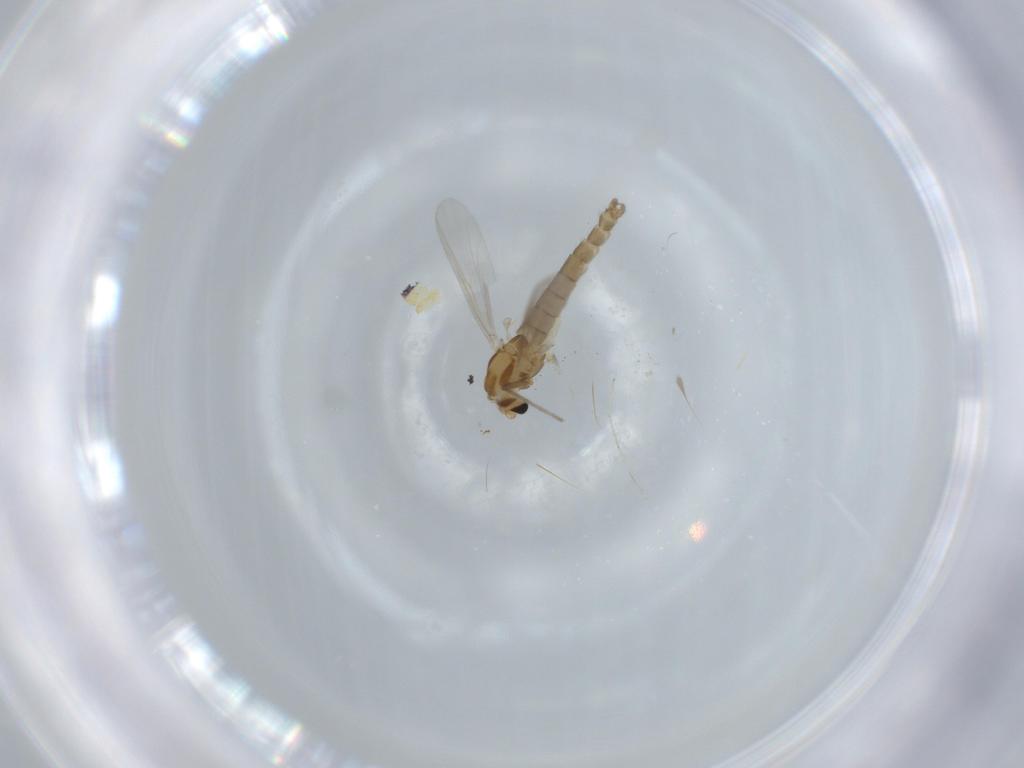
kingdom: Animalia
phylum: Arthropoda
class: Insecta
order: Diptera
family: Chironomidae
